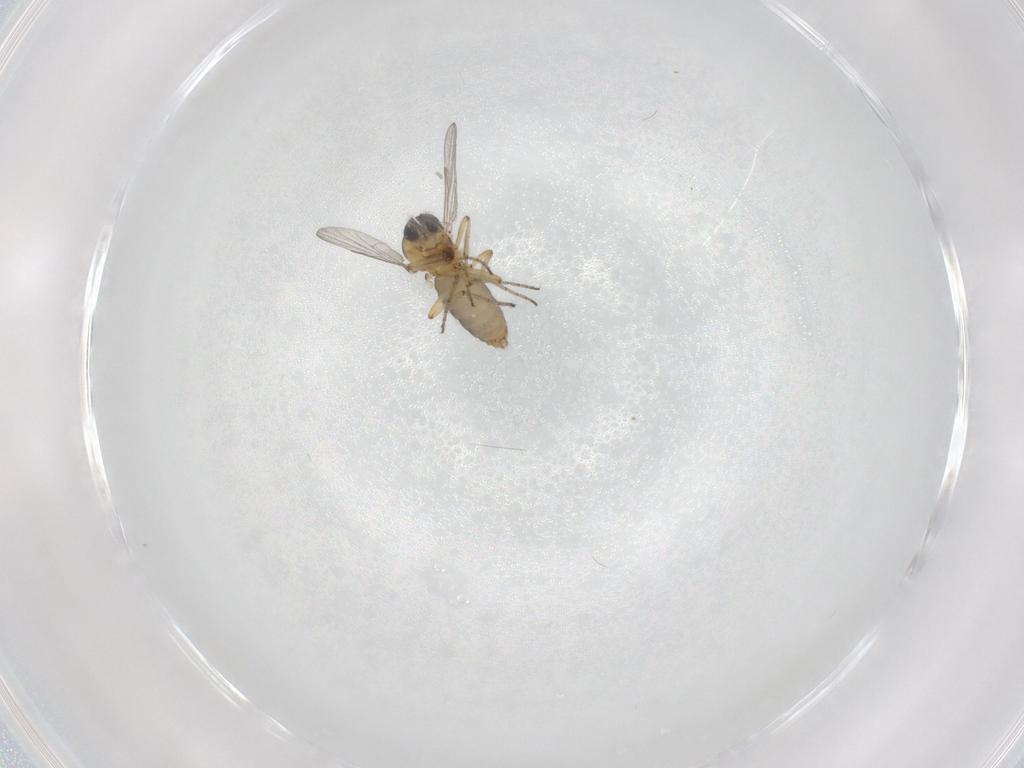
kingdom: Animalia
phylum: Arthropoda
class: Insecta
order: Diptera
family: Ceratopogonidae
